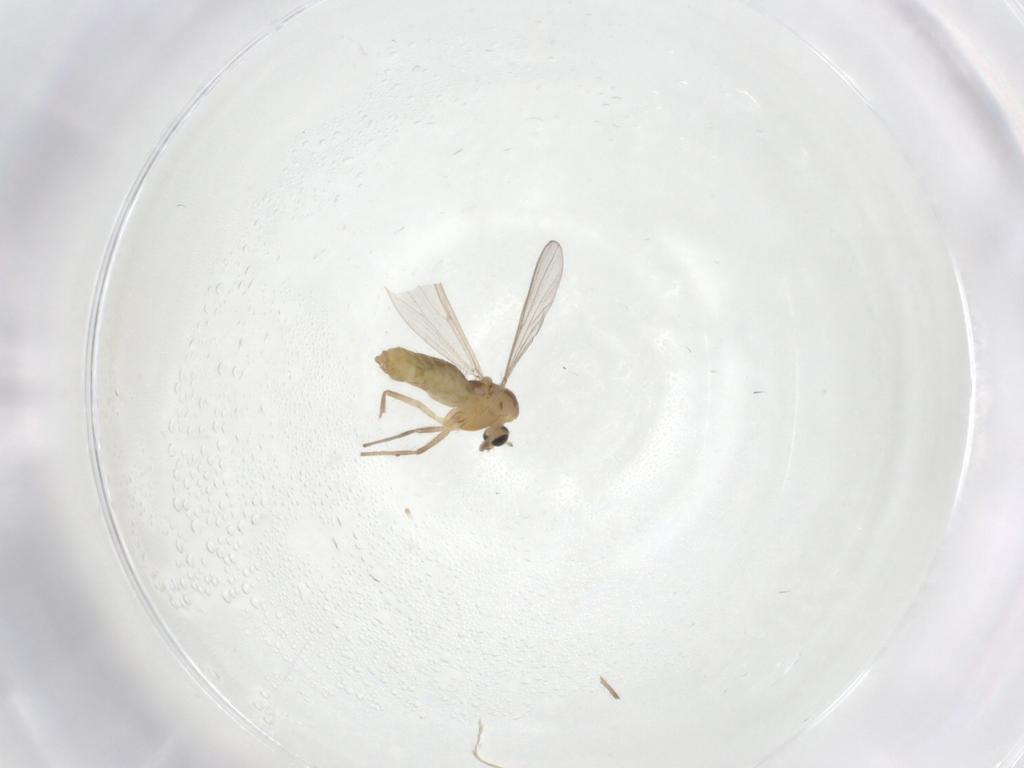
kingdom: Animalia
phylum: Arthropoda
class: Insecta
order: Diptera
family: Chironomidae
